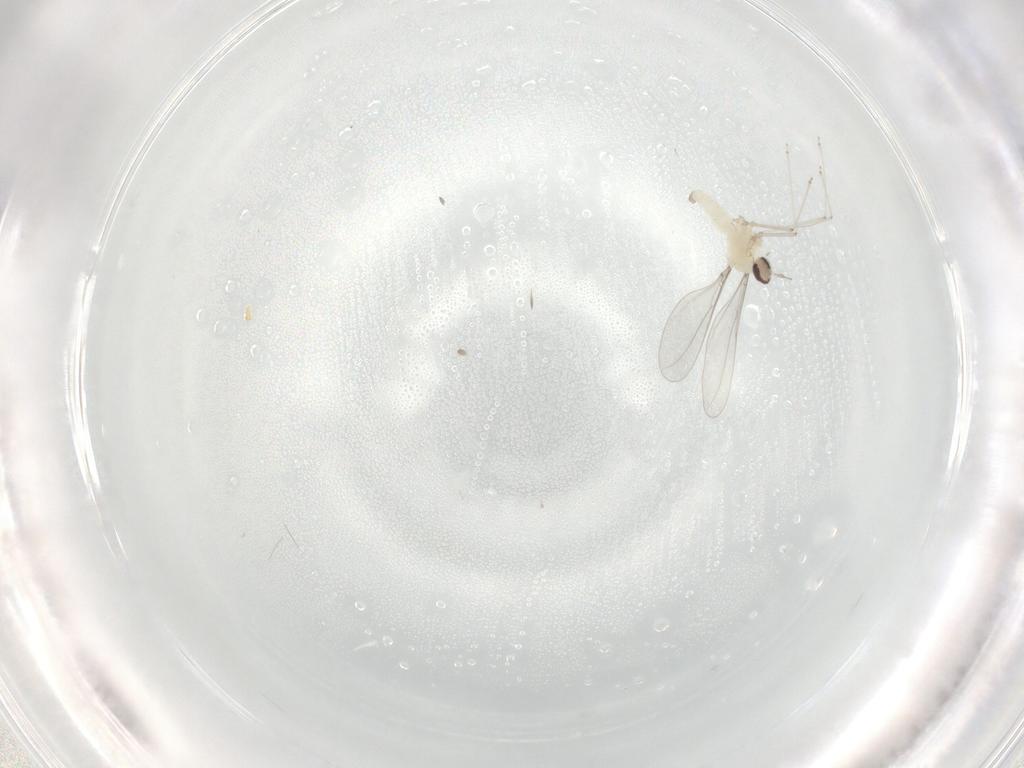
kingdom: Animalia
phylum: Arthropoda
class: Insecta
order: Diptera
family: Cecidomyiidae
